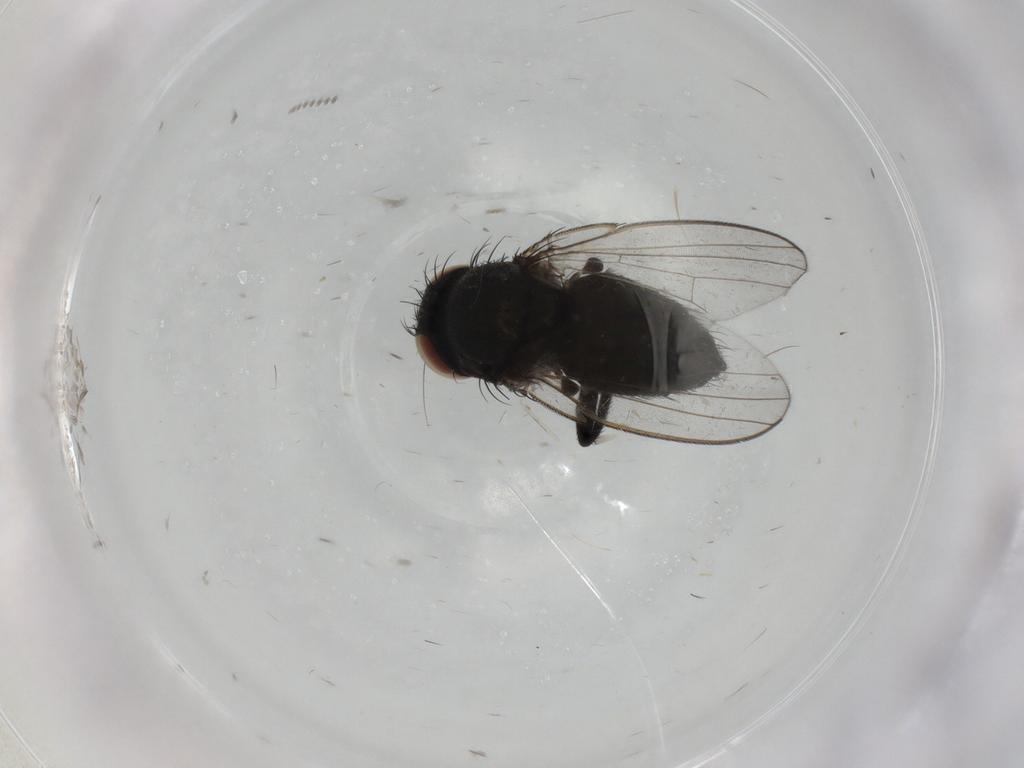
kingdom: Animalia
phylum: Arthropoda
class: Insecta
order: Diptera
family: Milichiidae
